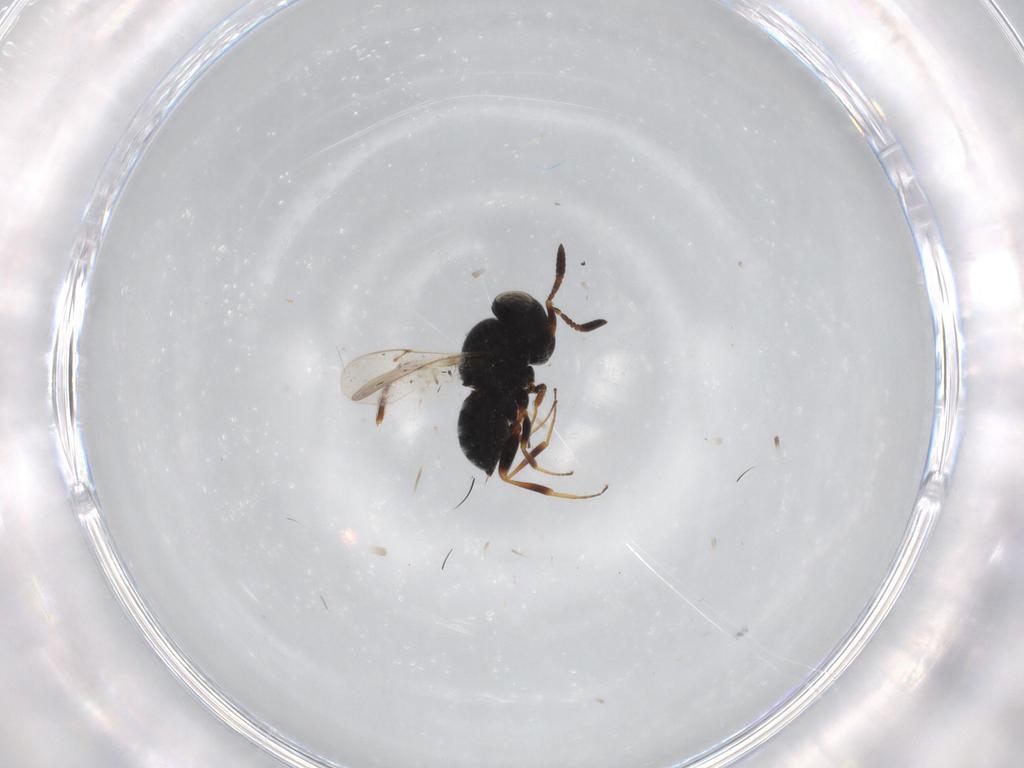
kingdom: Animalia
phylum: Arthropoda
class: Insecta
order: Hymenoptera
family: Scelionidae
